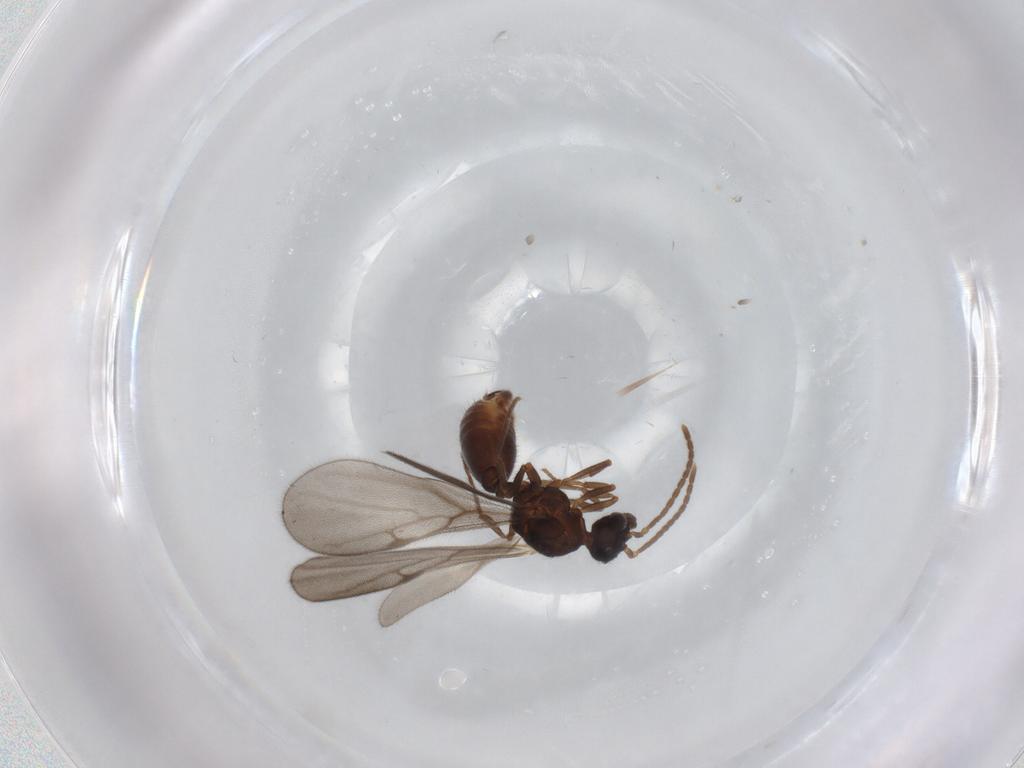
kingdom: Animalia
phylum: Arthropoda
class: Insecta
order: Hymenoptera
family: Formicidae
